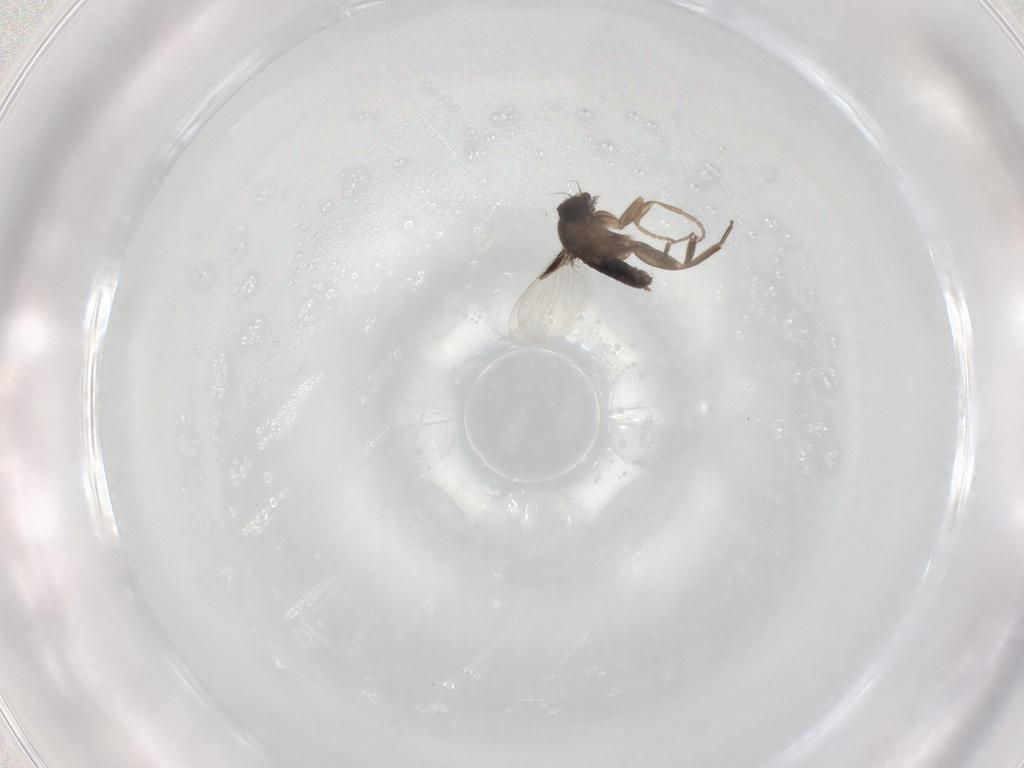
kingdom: Animalia
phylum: Arthropoda
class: Insecta
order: Diptera
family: Phoridae
